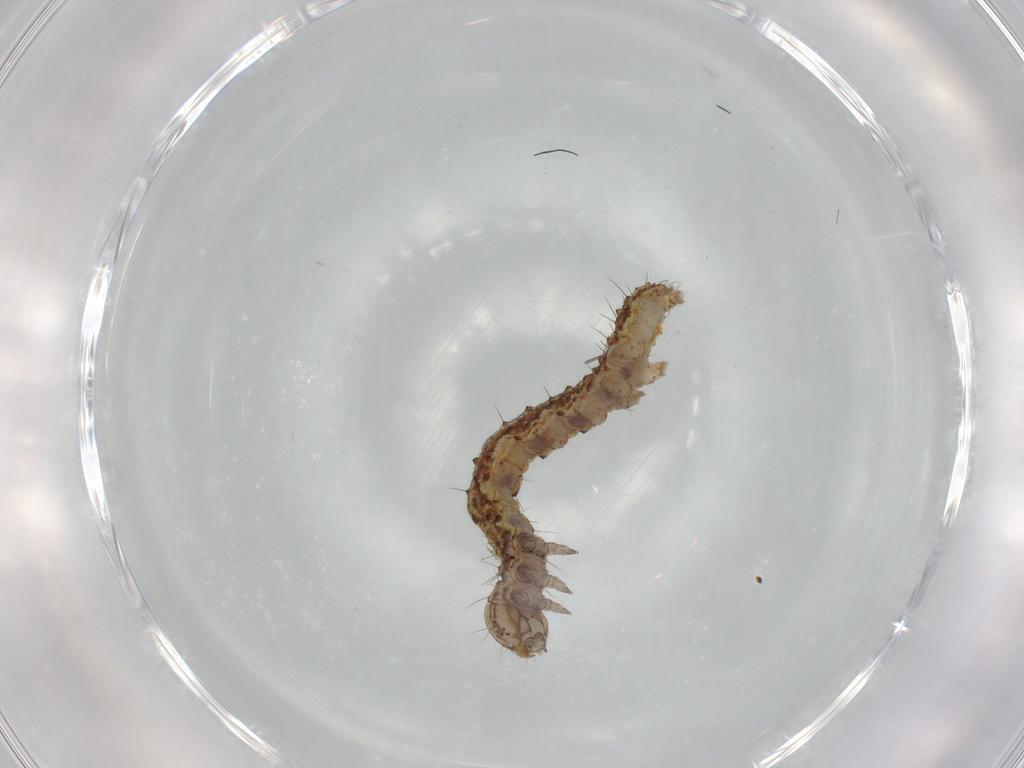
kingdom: Animalia
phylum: Arthropoda
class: Insecta
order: Lepidoptera
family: Erebidae
